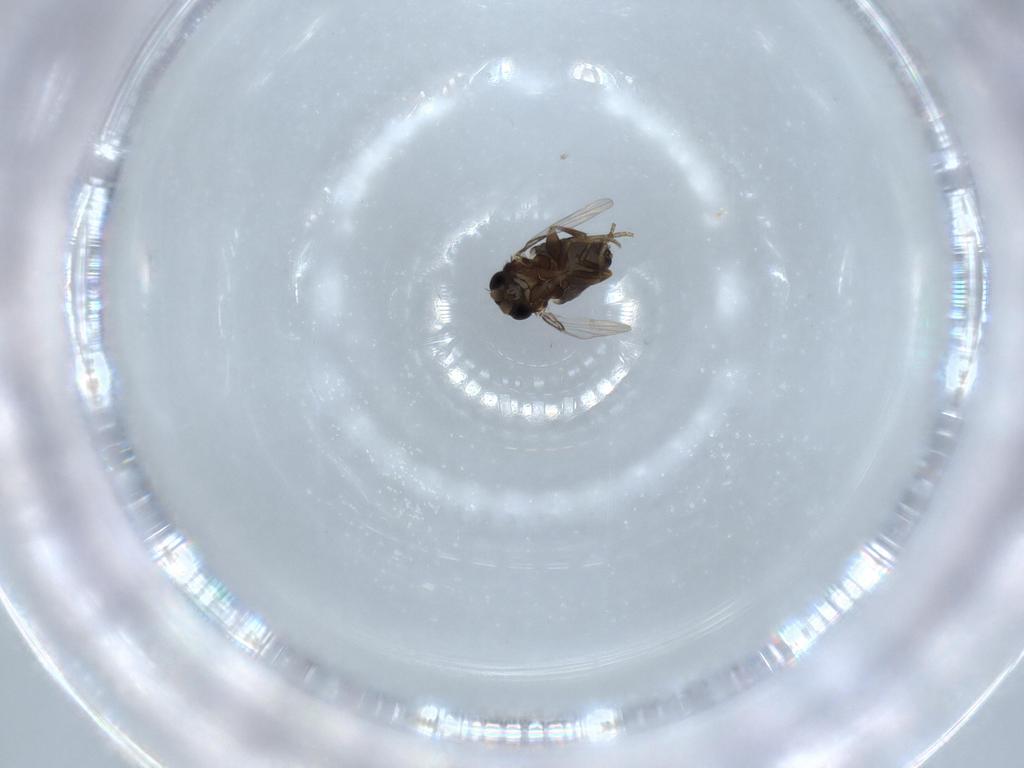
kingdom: Animalia
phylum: Arthropoda
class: Insecta
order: Diptera
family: Phoridae
